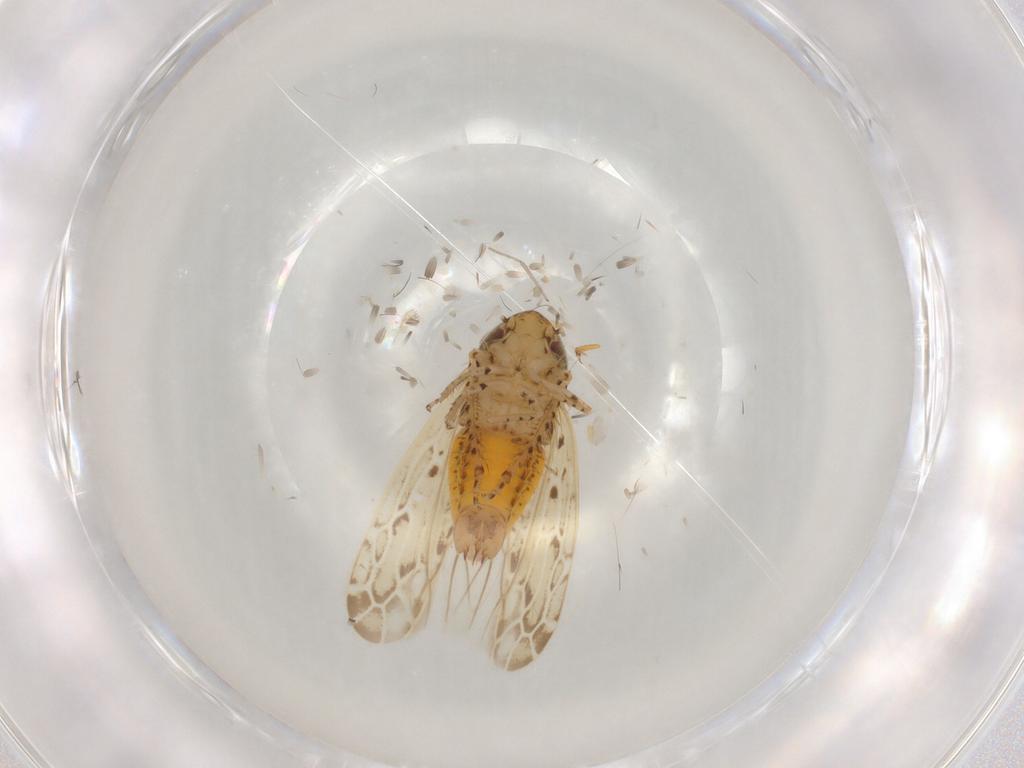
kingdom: Animalia
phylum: Arthropoda
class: Insecta
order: Hemiptera
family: Cicadellidae
